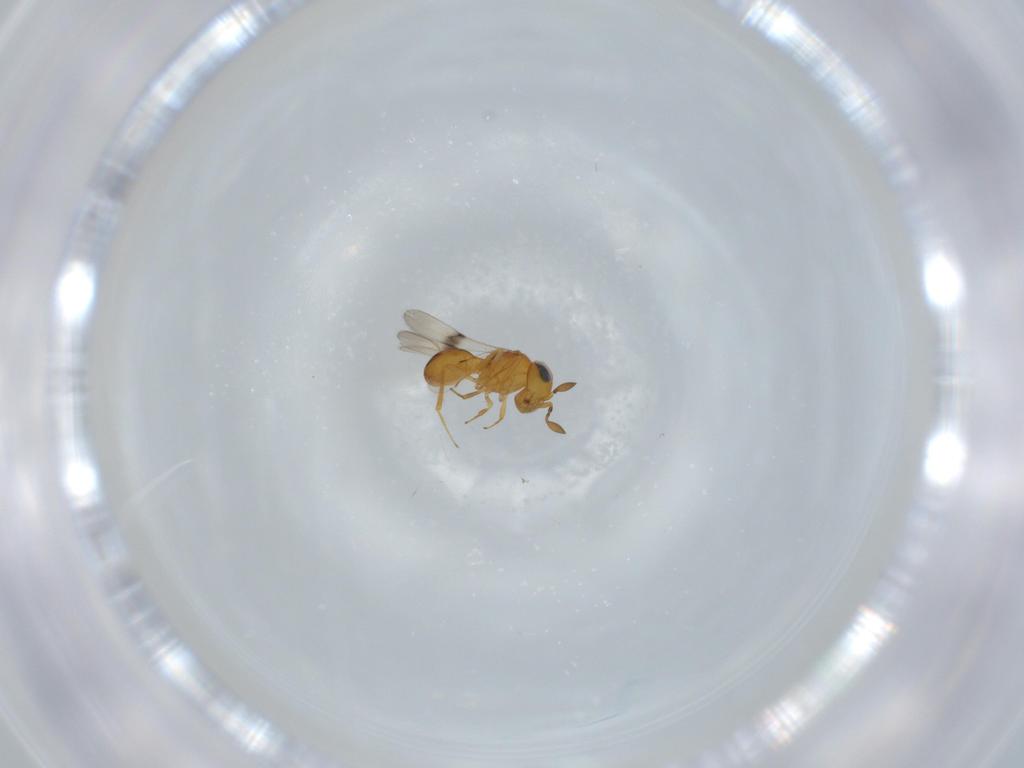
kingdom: Animalia
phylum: Arthropoda
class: Insecta
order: Hymenoptera
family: Scelionidae
